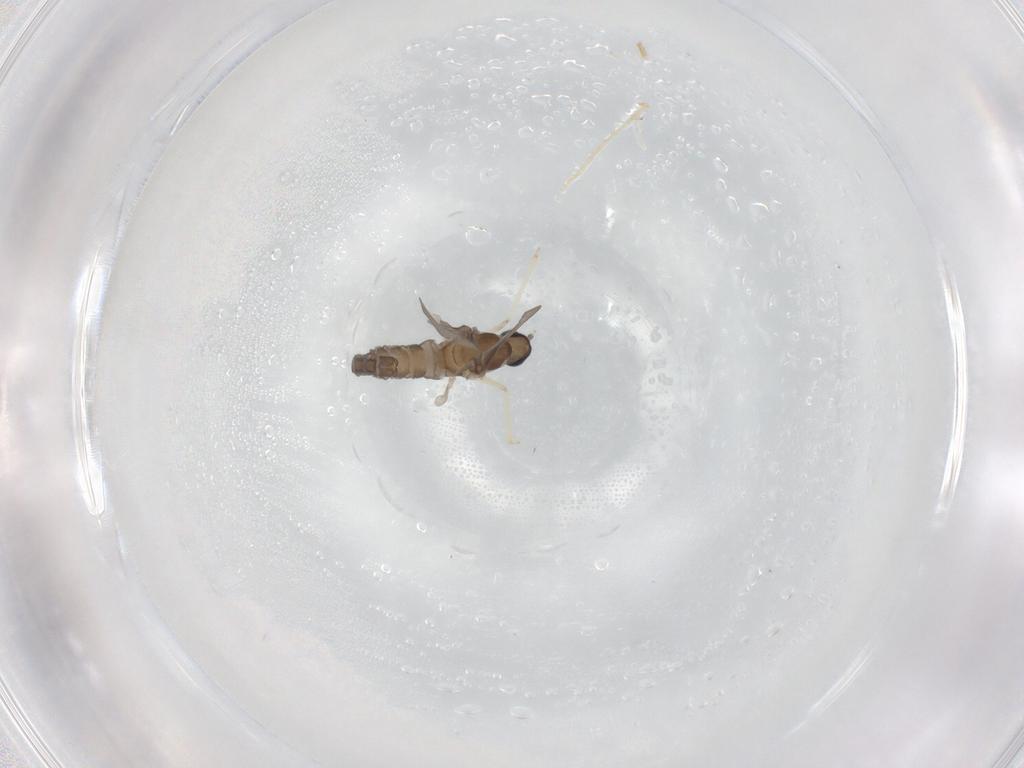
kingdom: Animalia
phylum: Arthropoda
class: Insecta
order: Diptera
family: Cecidomyiidae
